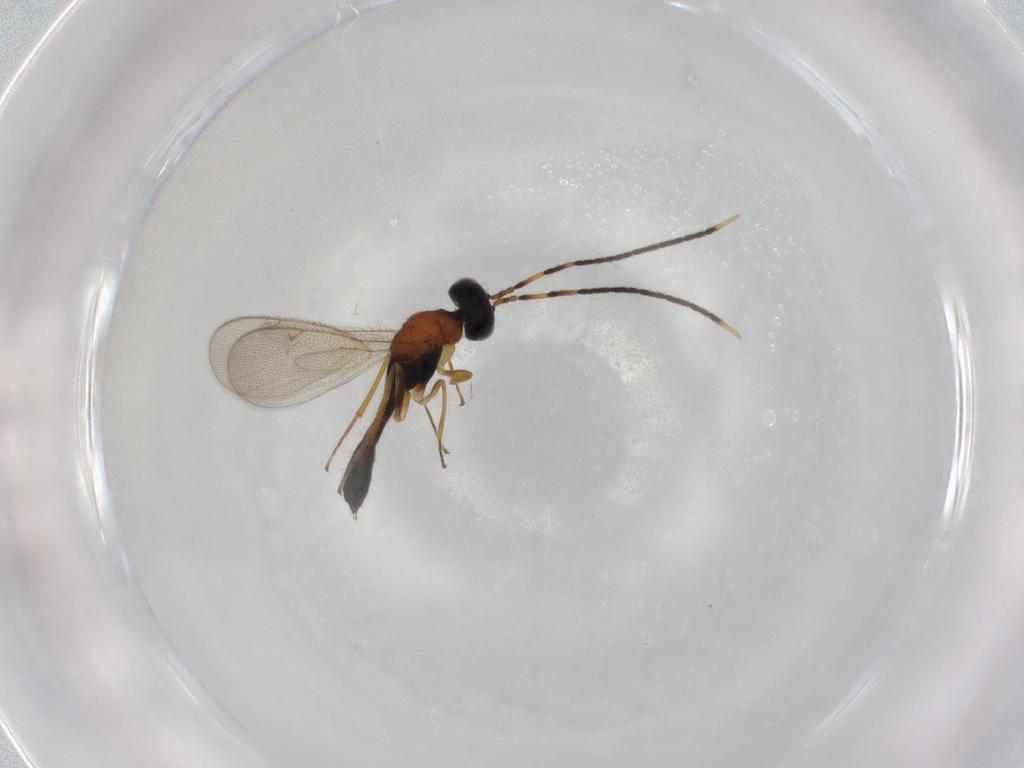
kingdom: Animalia
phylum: Arthropoda
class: Insecta
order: Hymenoptera
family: Pteromalidae
